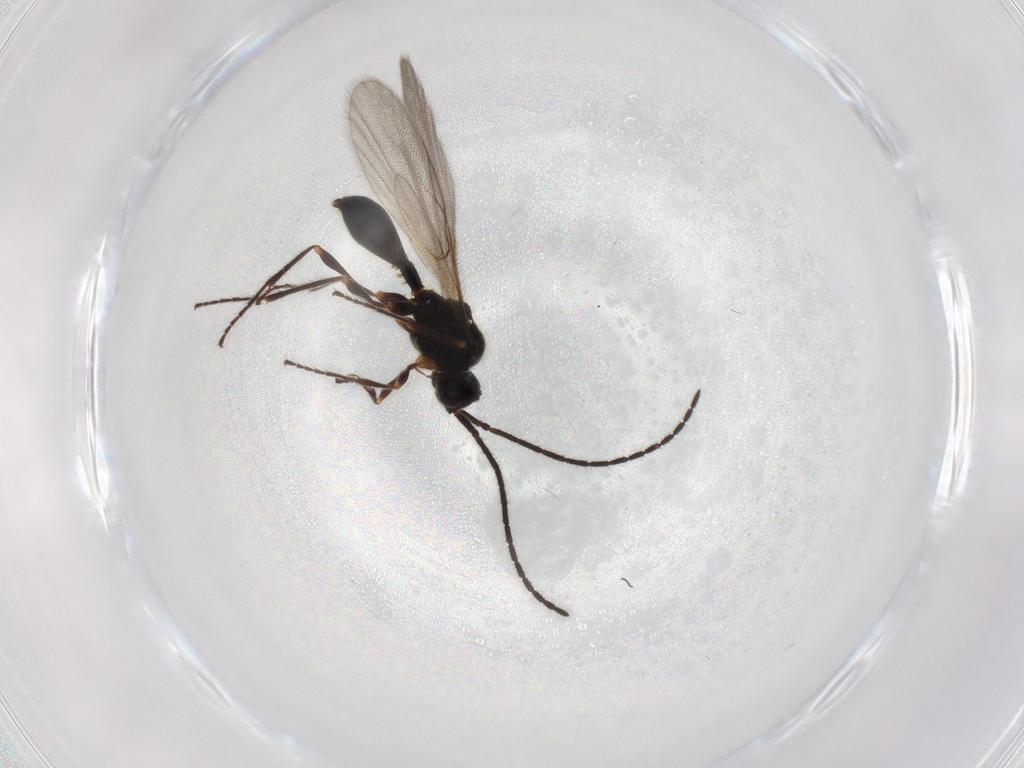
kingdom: Animalia
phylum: Arthropoda
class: Insecta
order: Hymenoptera
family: Diapriidae
